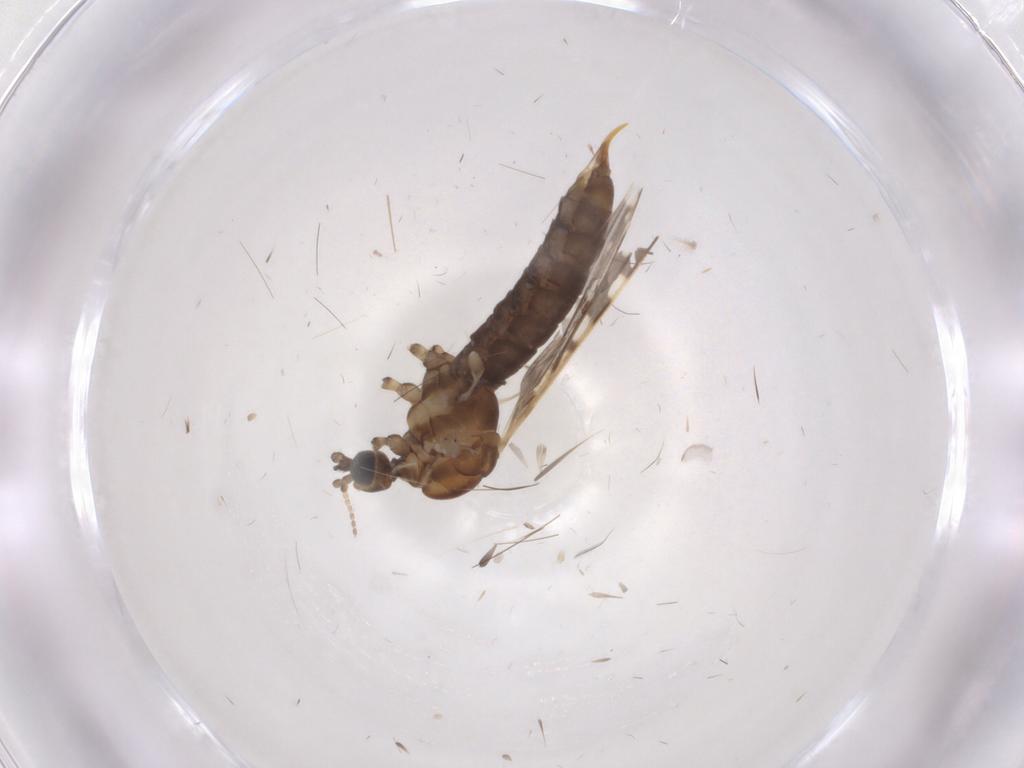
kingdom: Animalia
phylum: Arthropoda
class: Insecta
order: Diptera
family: Limoniidae
